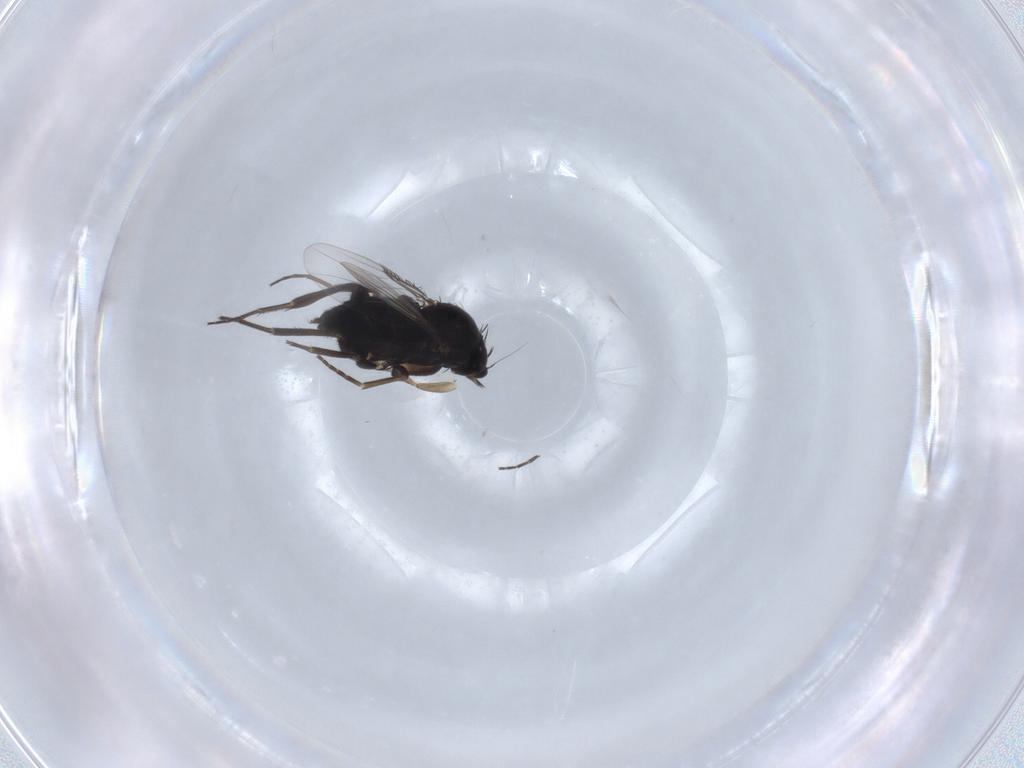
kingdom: Animalia
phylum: Arthropoda
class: Insecta
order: Diptera
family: Phoridae
